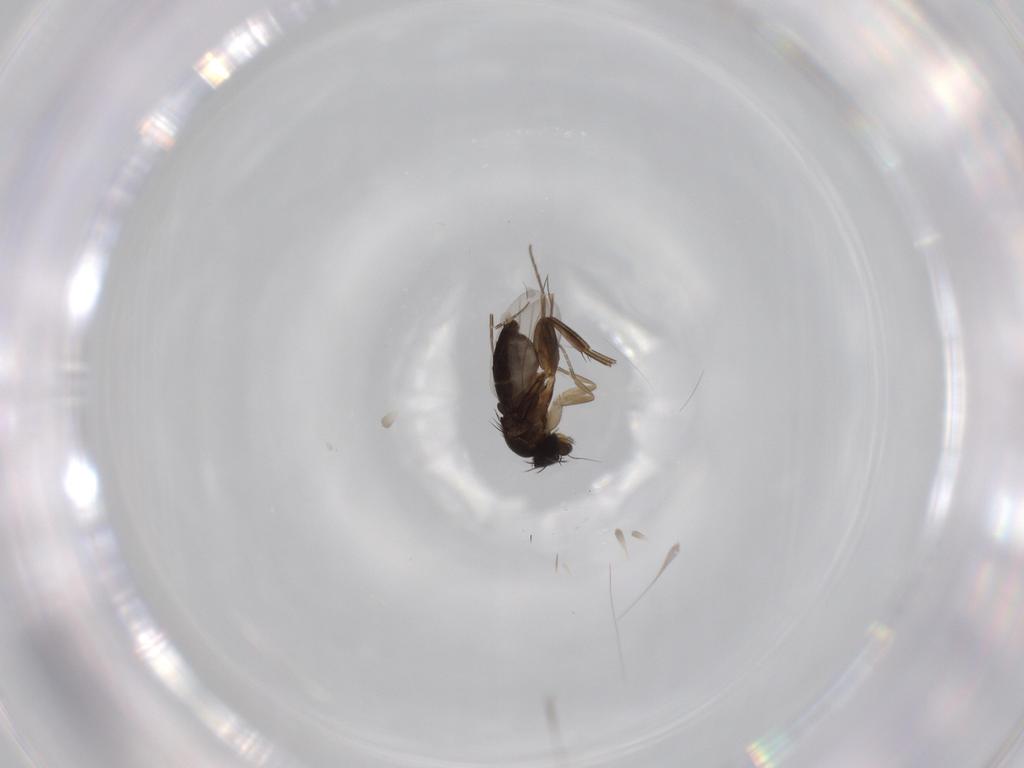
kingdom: Animalia
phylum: Arthropoda
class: Insecta
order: Diptera
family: Phoridae
